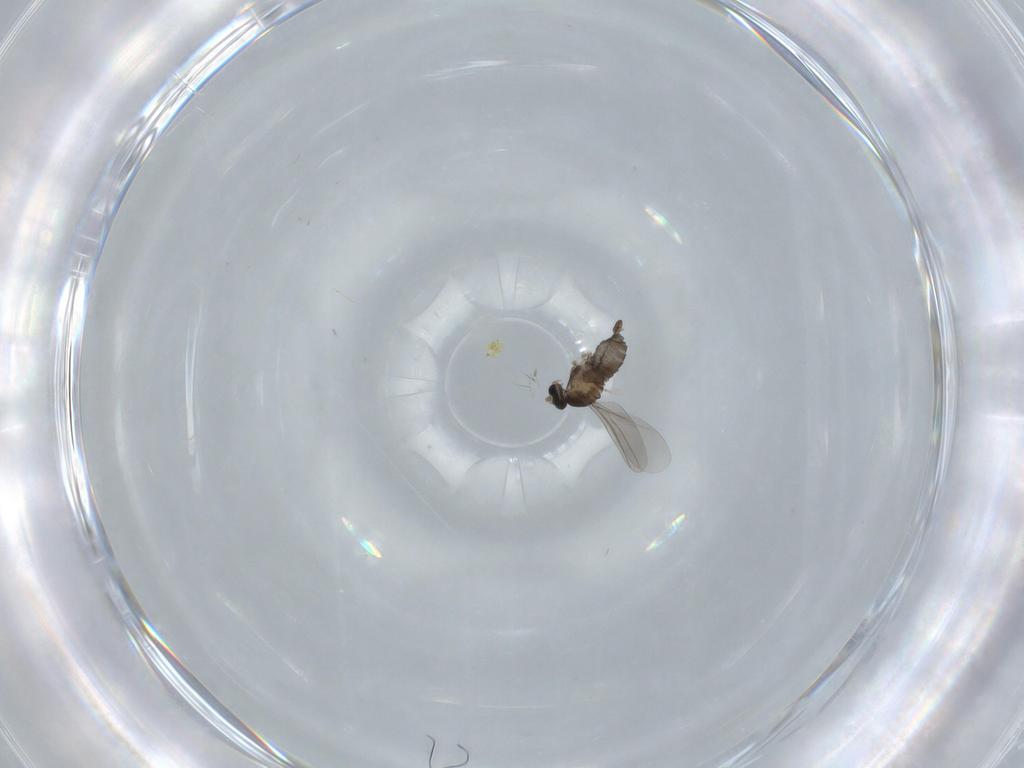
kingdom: Animalia
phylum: Arthropoda
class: Insecta
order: Diptera
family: Cecidomyiidae
